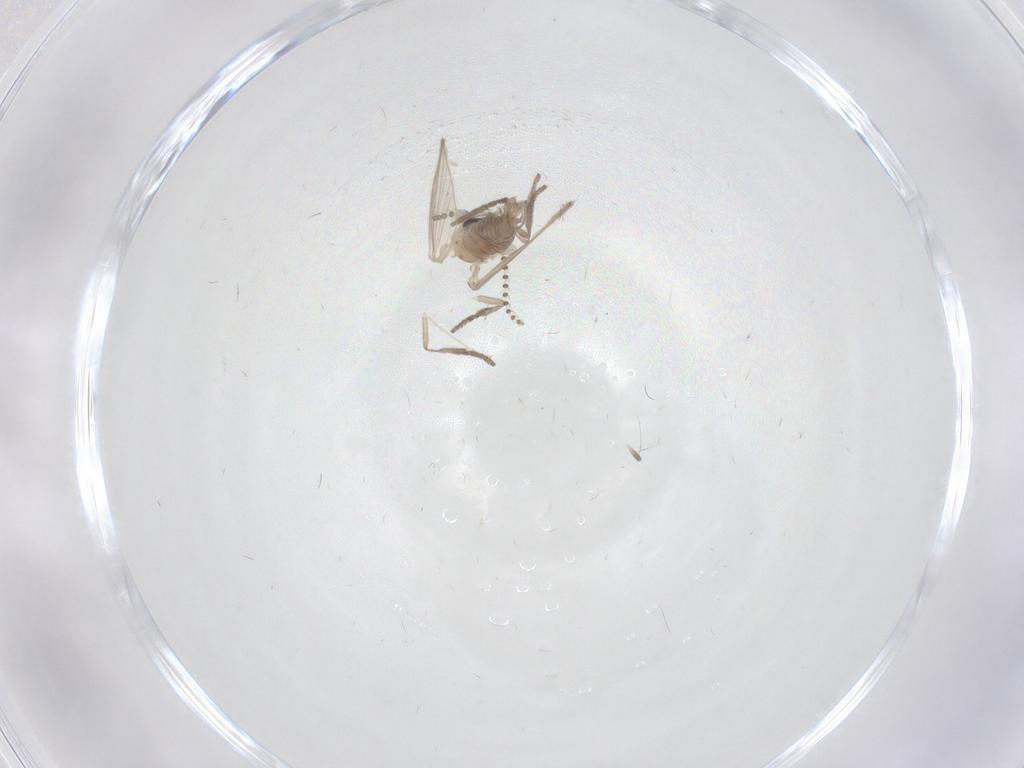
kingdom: Animalia
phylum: Arthropoda
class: Insecta
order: Diptera
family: Psychodidae
